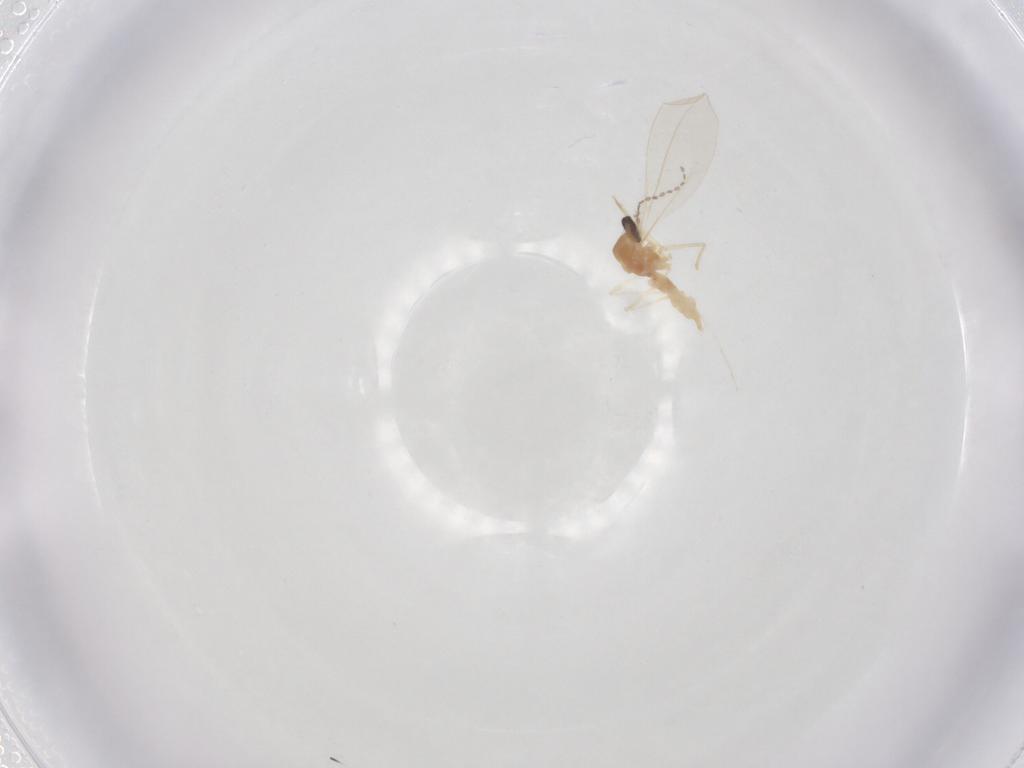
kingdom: Animalia
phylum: Arthropoda
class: Insecta
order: Diptera
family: Cecidomyiidae
